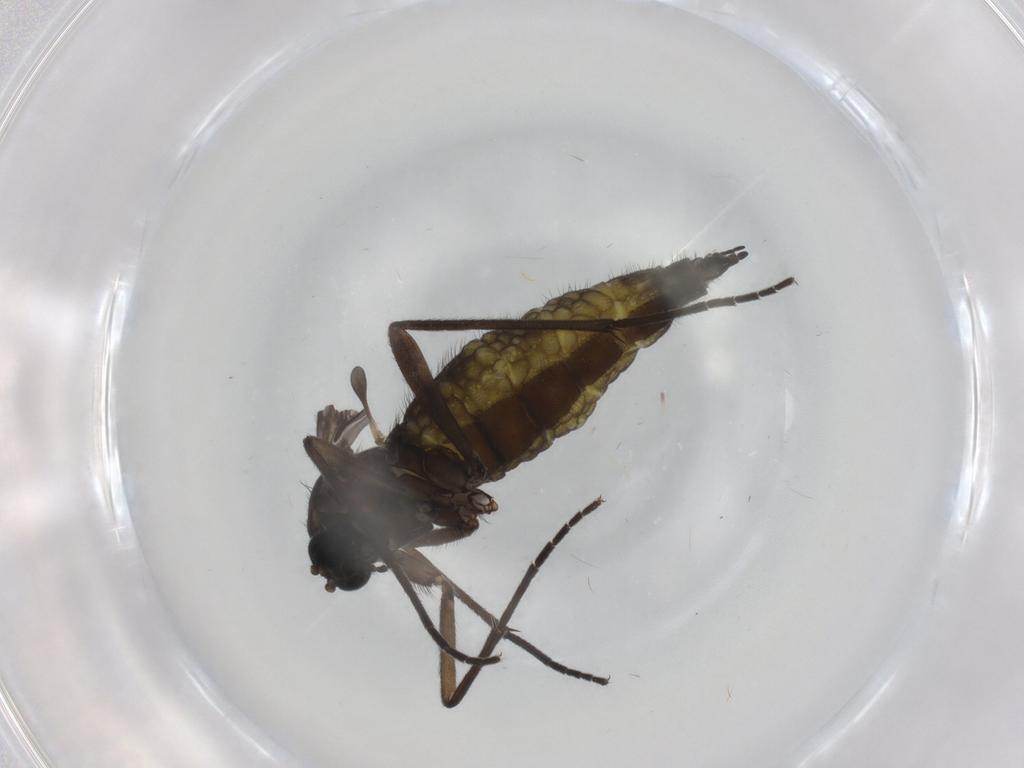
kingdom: Animalia
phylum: Arthropoda
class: Insecta
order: Diptera
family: Sciaridae
